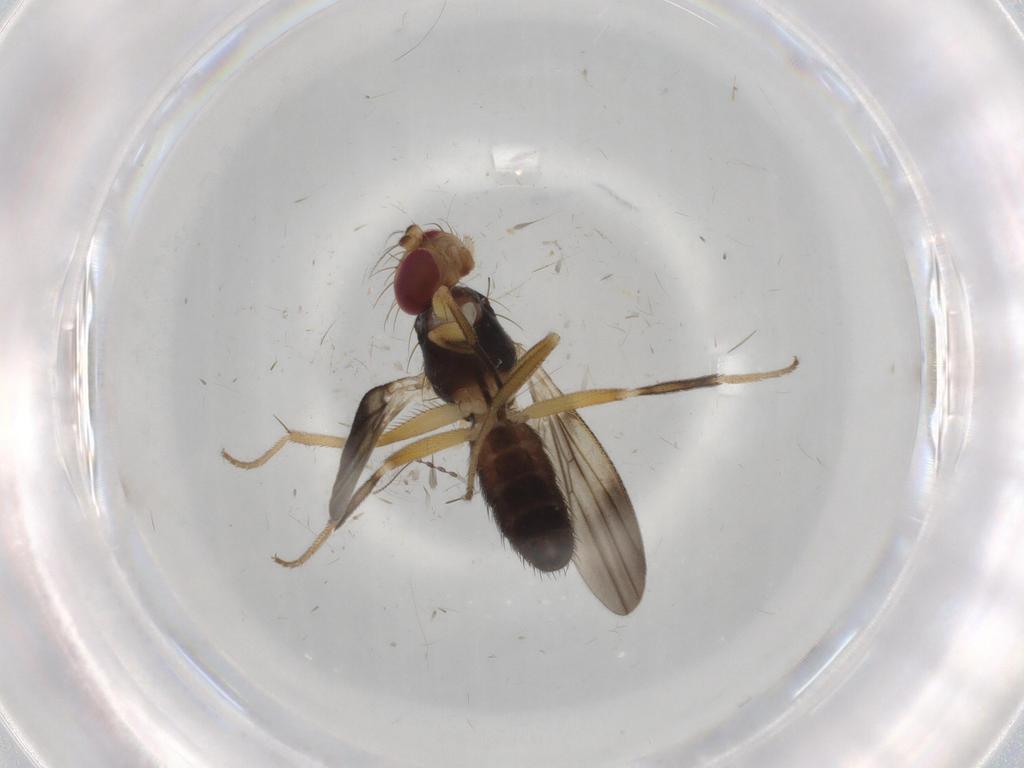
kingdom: Animalia
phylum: Arthropoda
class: Insecta
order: Diptera
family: Clusiidae
